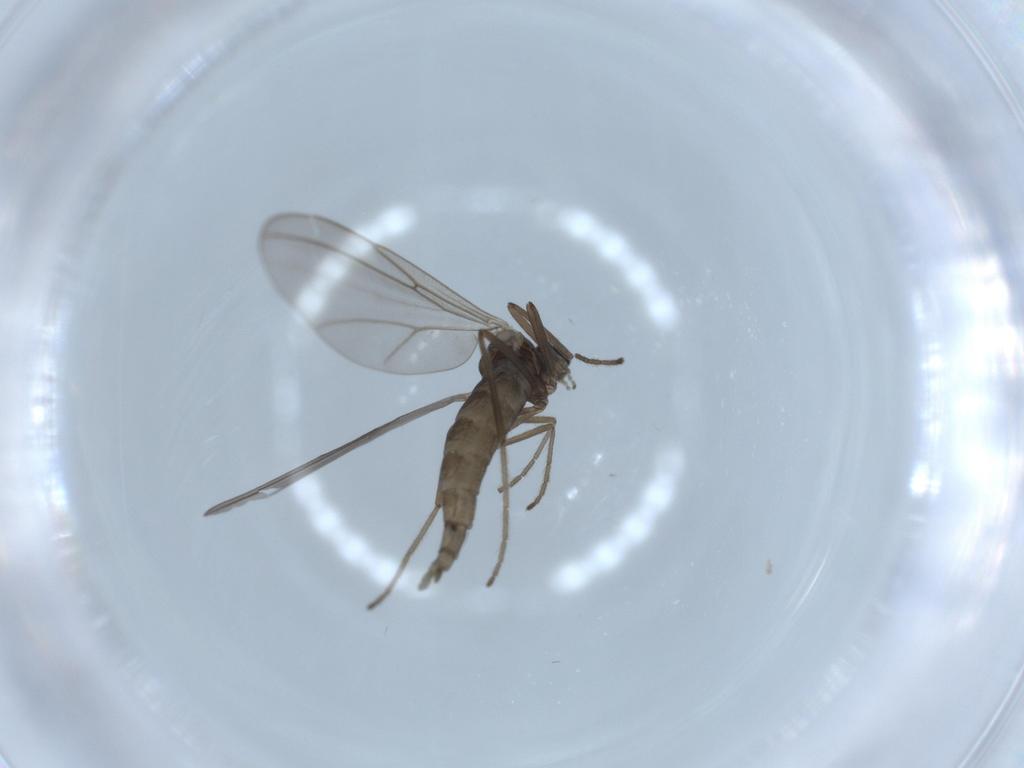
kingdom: Animalia
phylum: Arthropoda
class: Insecta
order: Diptera
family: Cecidomyiidae
